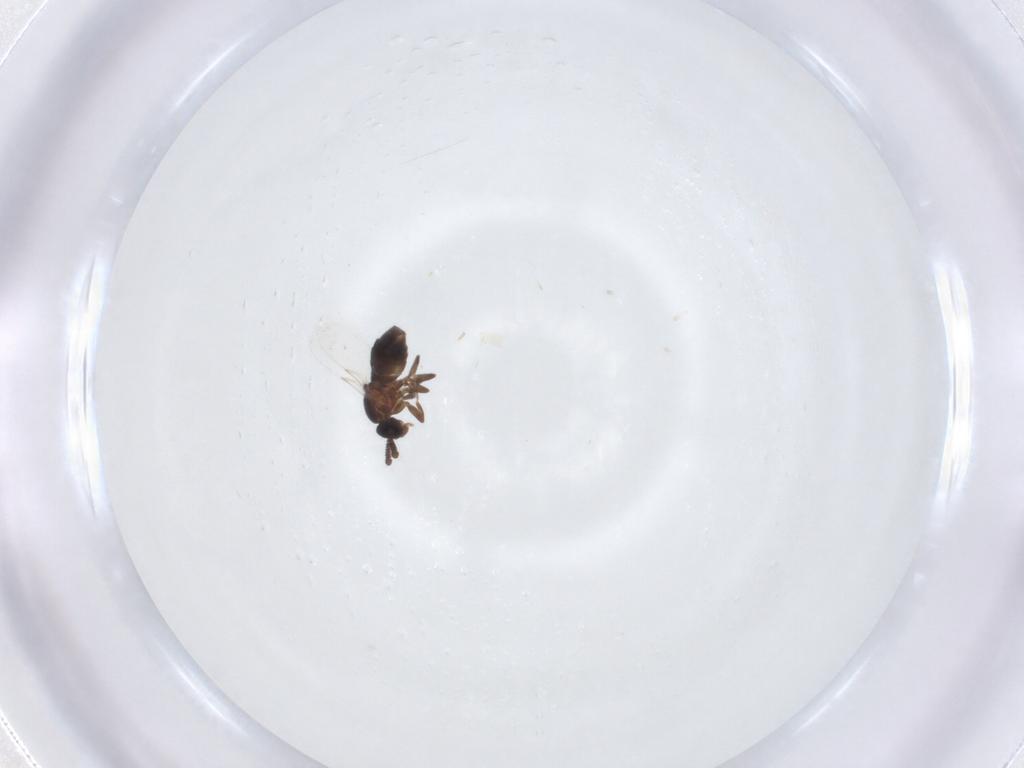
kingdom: Animalia
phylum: Arthropoda
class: Insecta
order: Diptera
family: Scatopsidae
